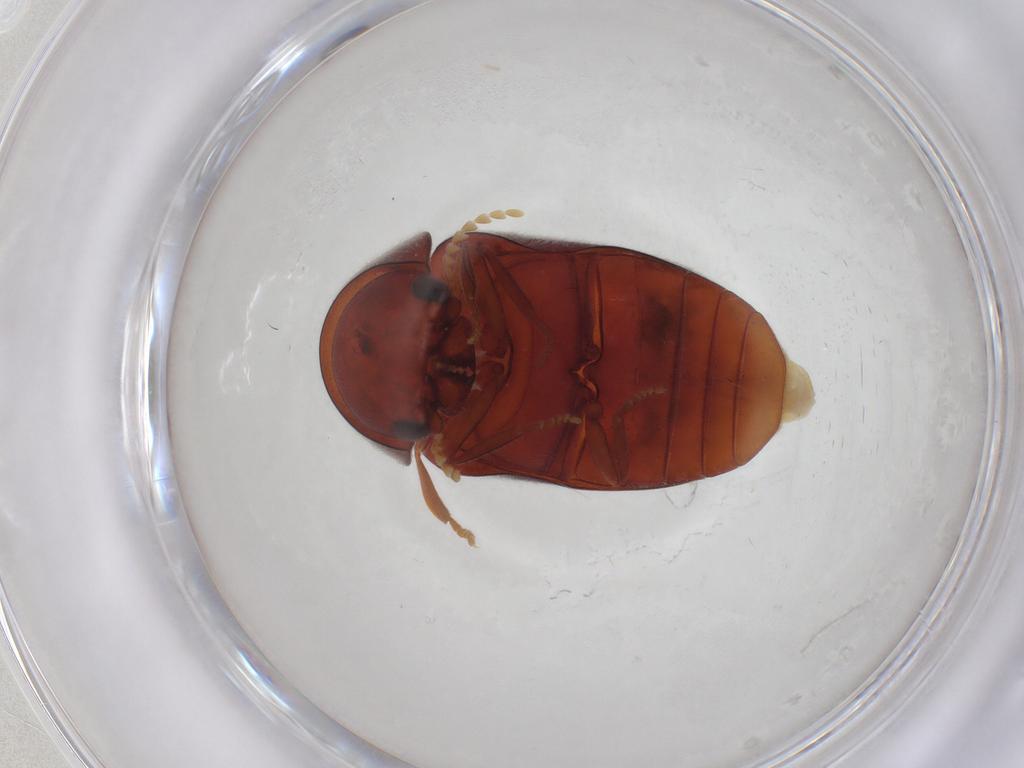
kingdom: Animalia
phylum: Arthropoda
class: Insecta
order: Coleoptera
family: Ptinidae
